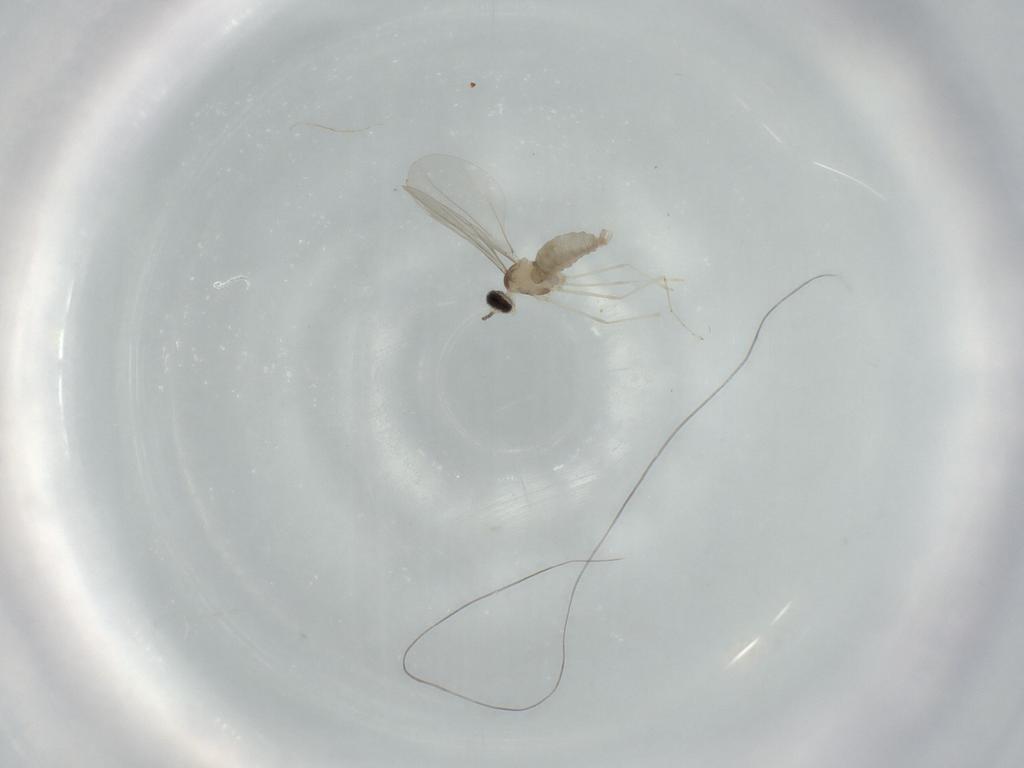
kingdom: Animalia
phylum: Arthropoda
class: Insecta
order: Diptera
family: Cecidomyiidae
